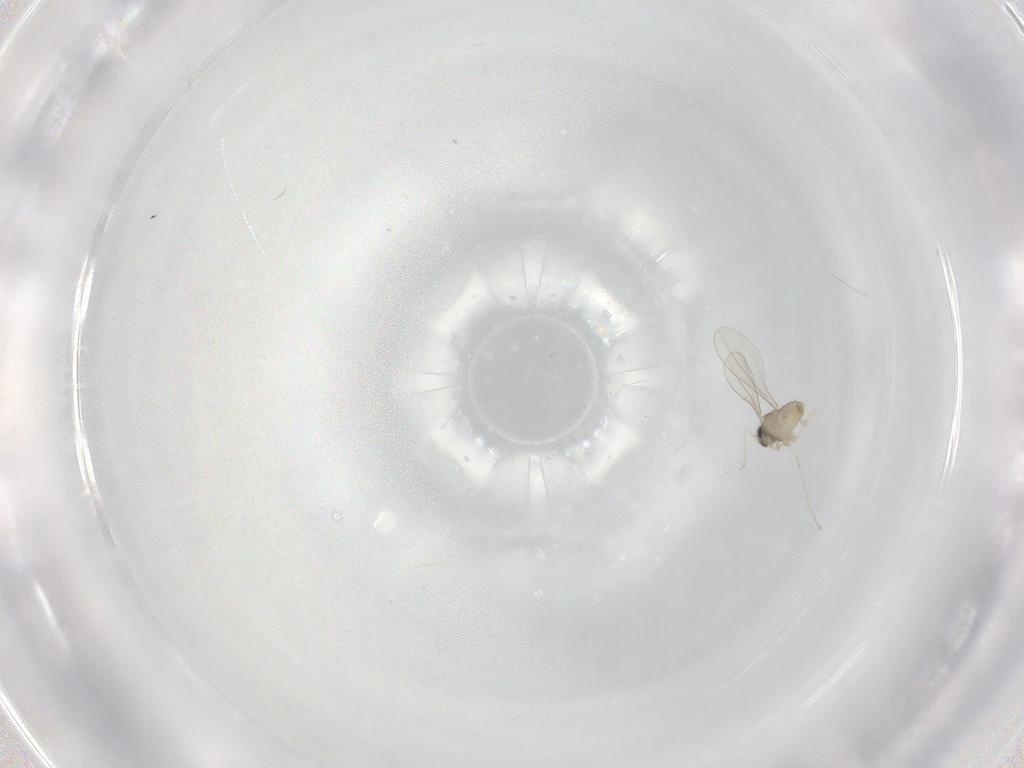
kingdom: Animalia
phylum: Arthropoda
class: Insecta
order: Diptera
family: Cecidomyiidae
